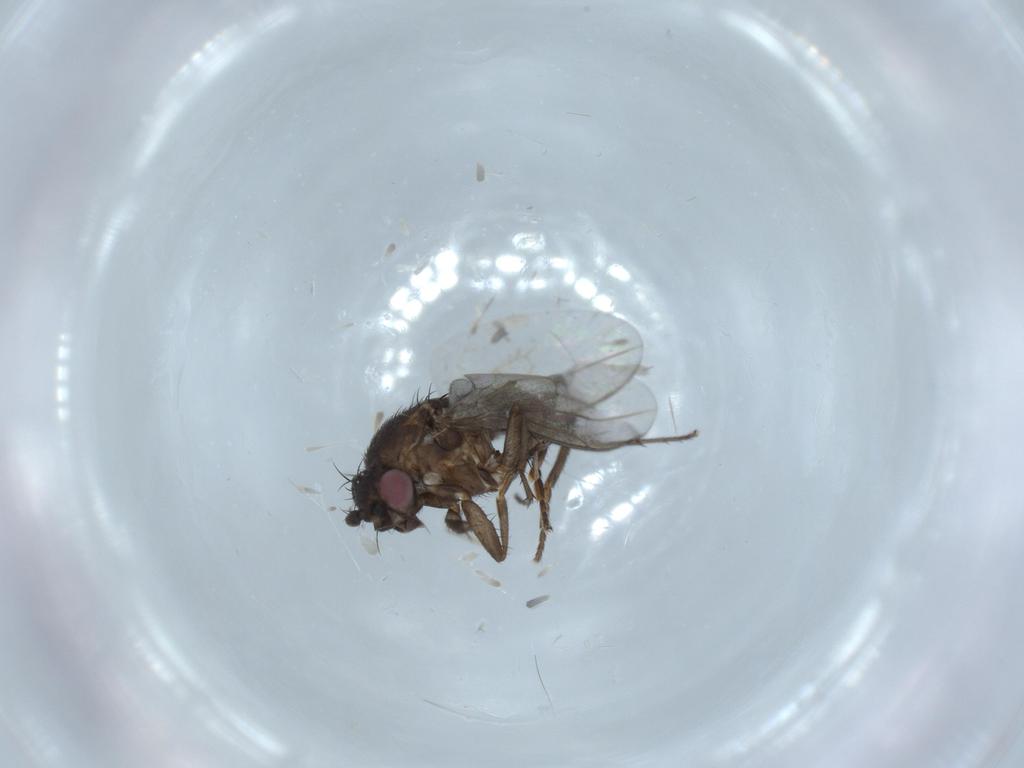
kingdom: Animalia
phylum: Arthropoda
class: Insecta
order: Diptera
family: Sphaeroceridae
